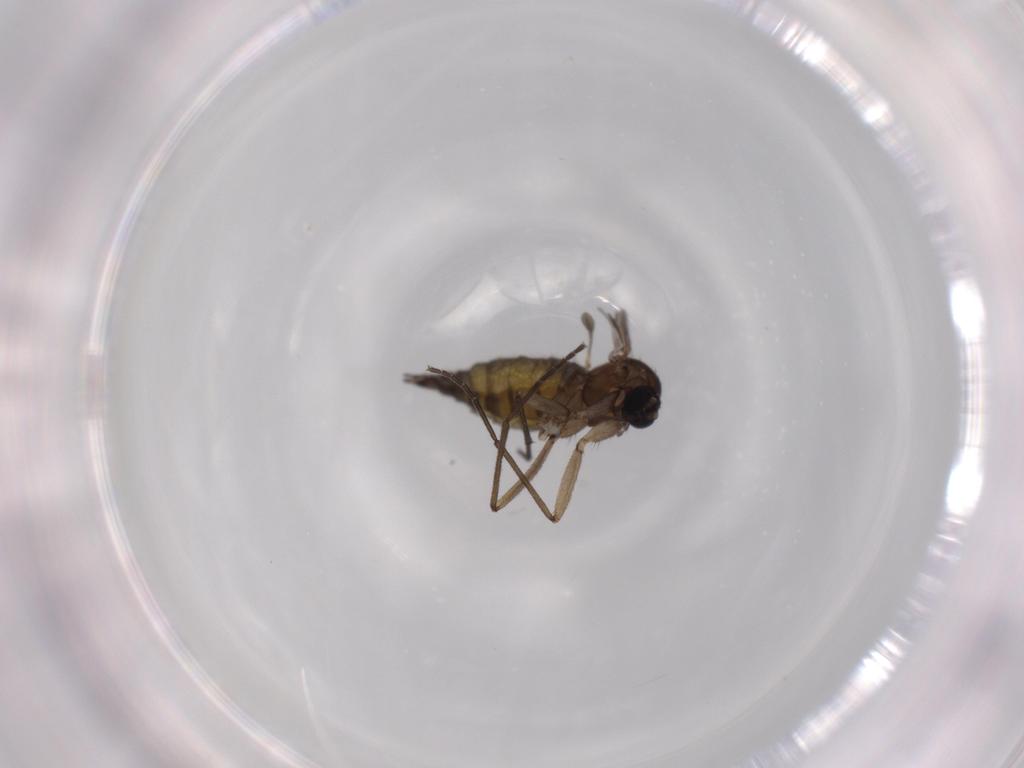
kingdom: Animalia
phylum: Arthropoda
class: Insecta
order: Diptera
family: Sciaridae
